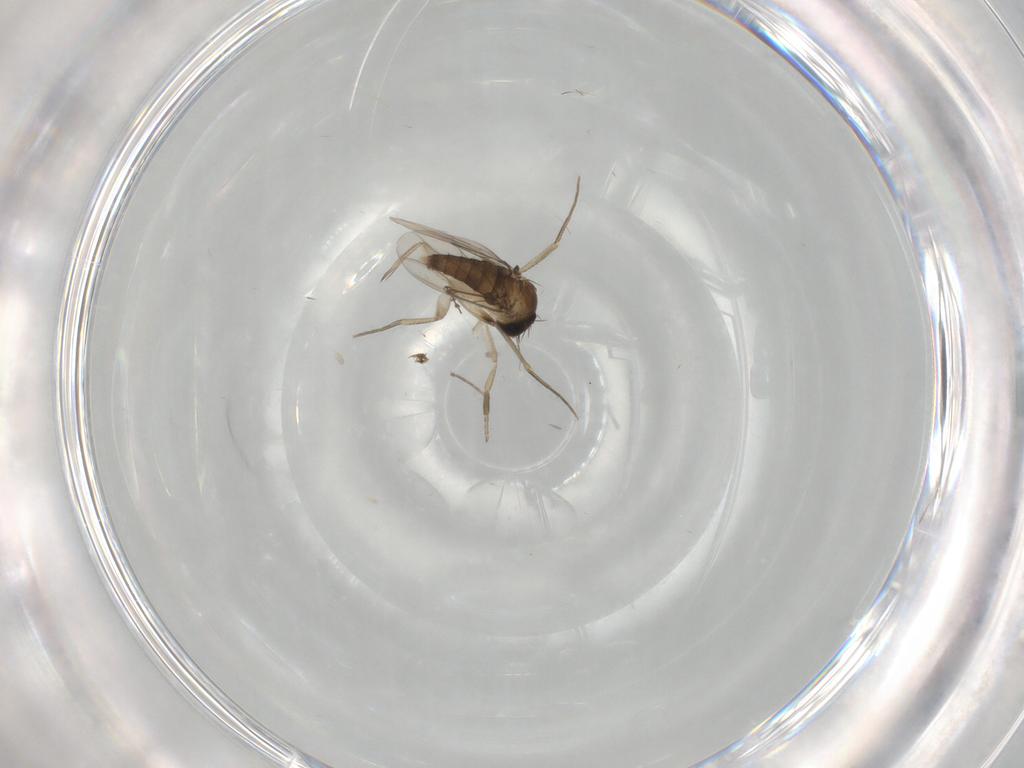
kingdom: Animalia
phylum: Arthropoda
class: Insecta
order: Diptera
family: Phoridae
